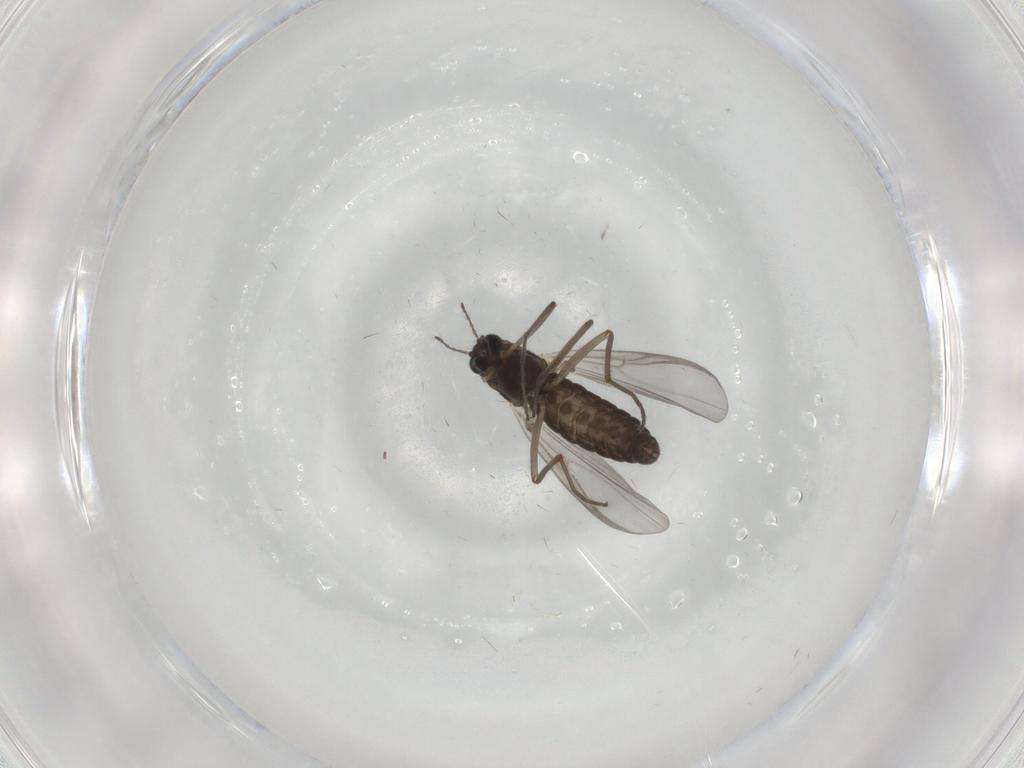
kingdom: Animalia
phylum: Arthropoda
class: Insecta
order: Diptera
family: Chironomidae
